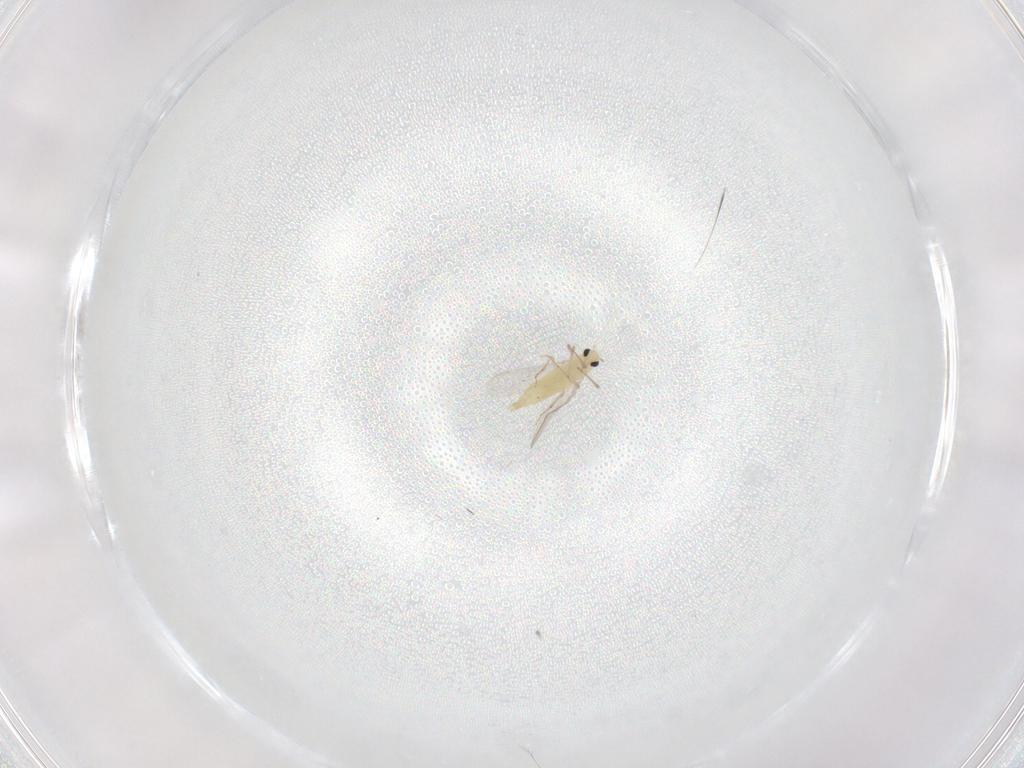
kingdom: Animalia
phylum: Arthropoda
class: Insecta
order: Diptera
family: Chironomidae
